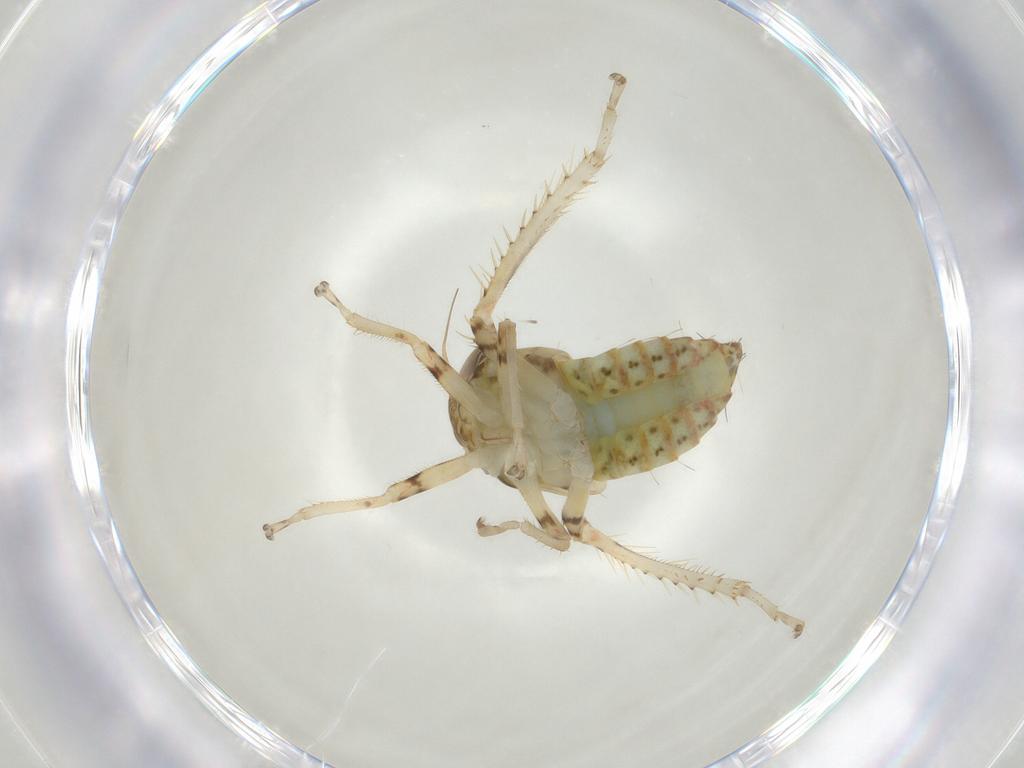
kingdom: Animalia
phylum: Arthropoda
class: Insecta
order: Hemiptera
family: Cicadellidae
